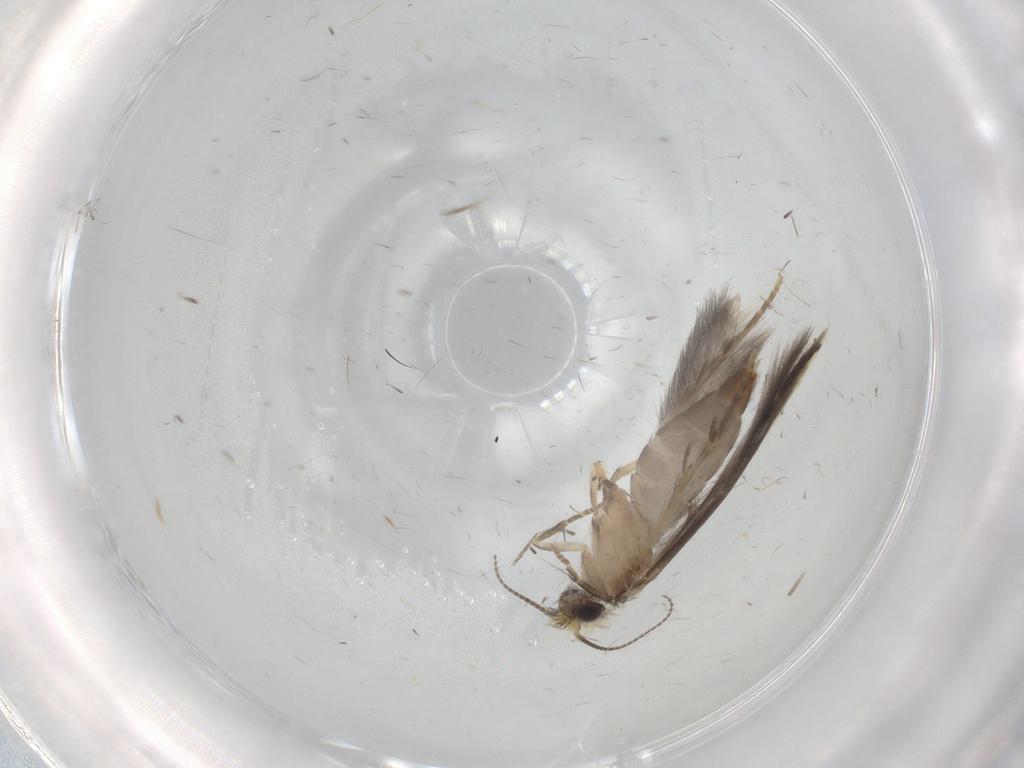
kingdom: Animalia
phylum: Arthropoda
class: Insecta
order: Trichoptera
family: Hydroptilidae
